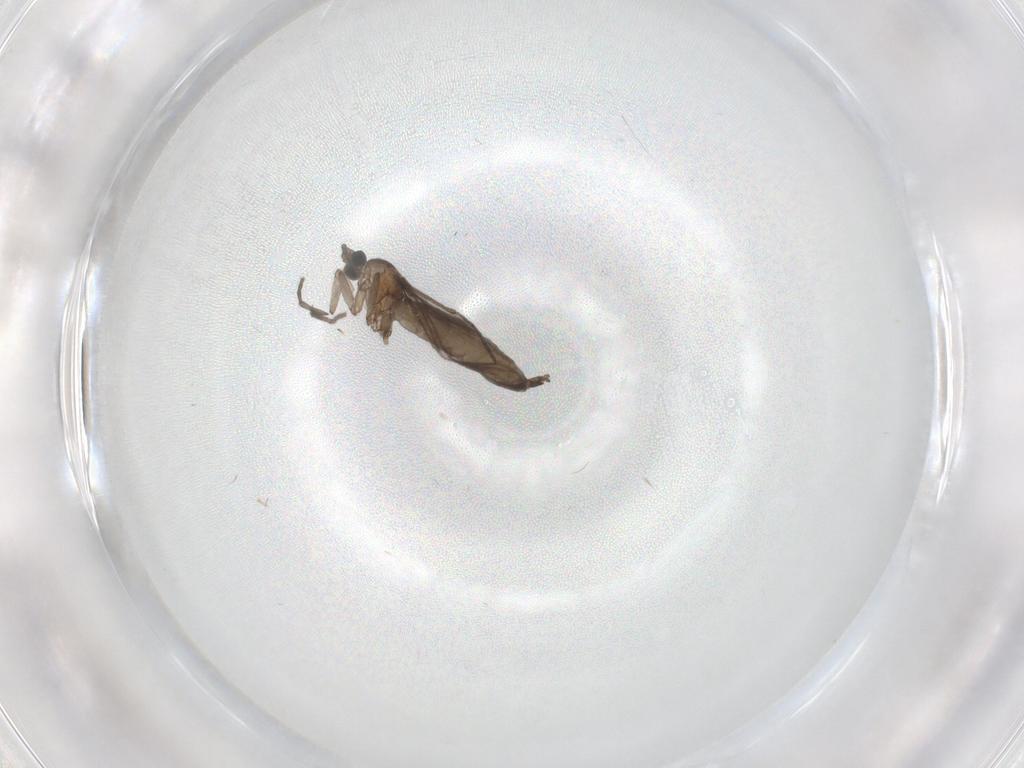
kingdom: Animalia
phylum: Arthropoda
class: Insecta
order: Diptera
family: Sciaridae
